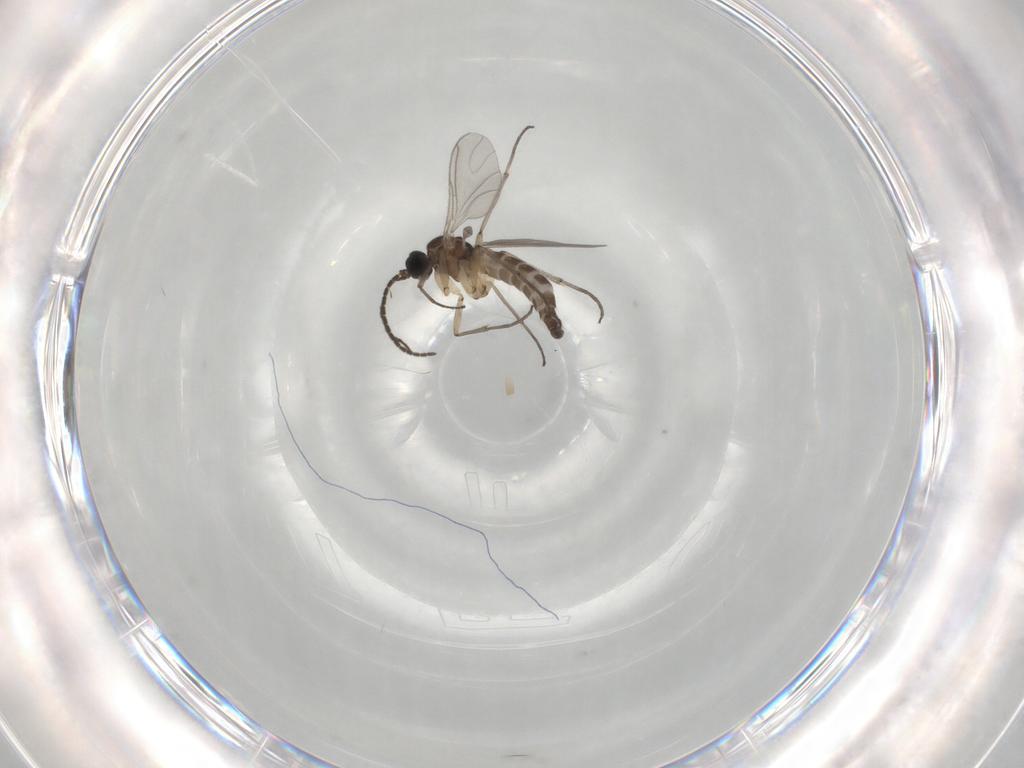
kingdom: Animalia
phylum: Arthropoda
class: Insecta
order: Diptera
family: Sciaridae
